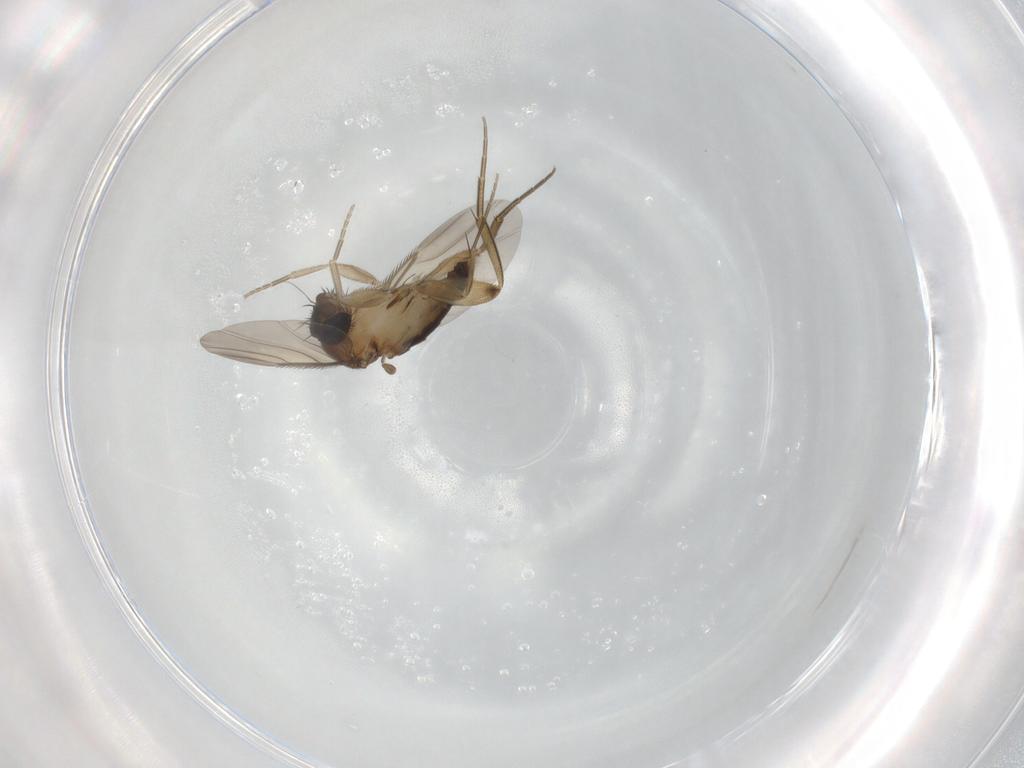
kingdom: Animalia
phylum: Arthropoda
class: Insecta
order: Diptera
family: Phoridae
